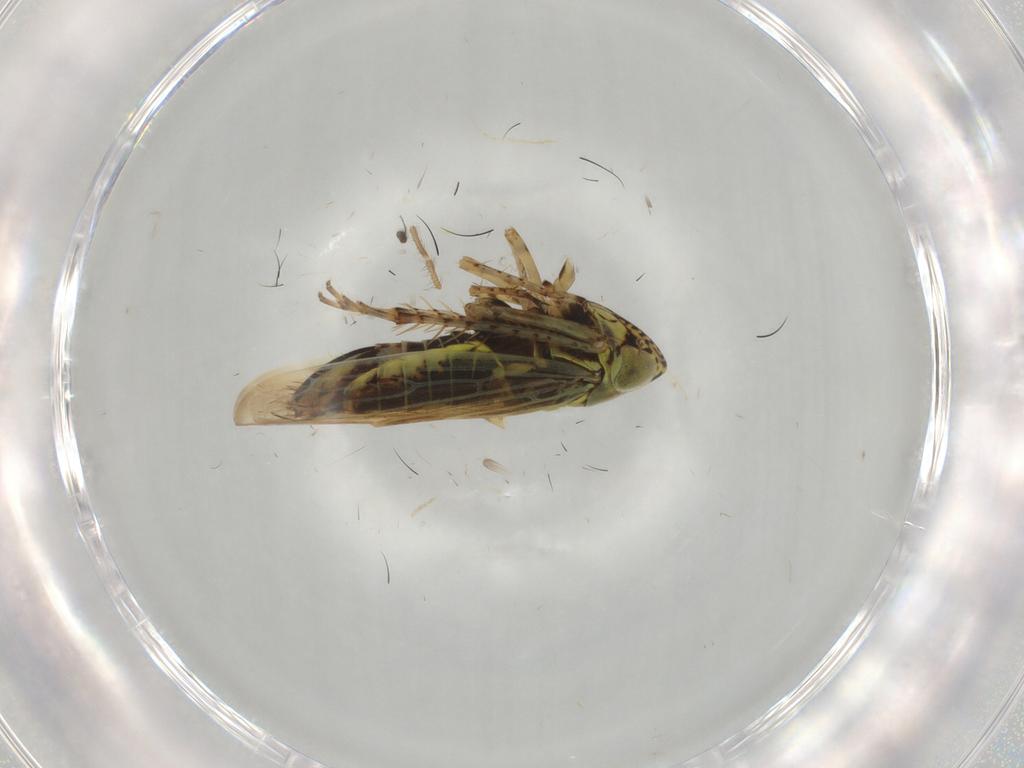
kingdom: Animalia
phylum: Arthropoda
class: Insecta
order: Hemiptera
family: Cicadellidae
